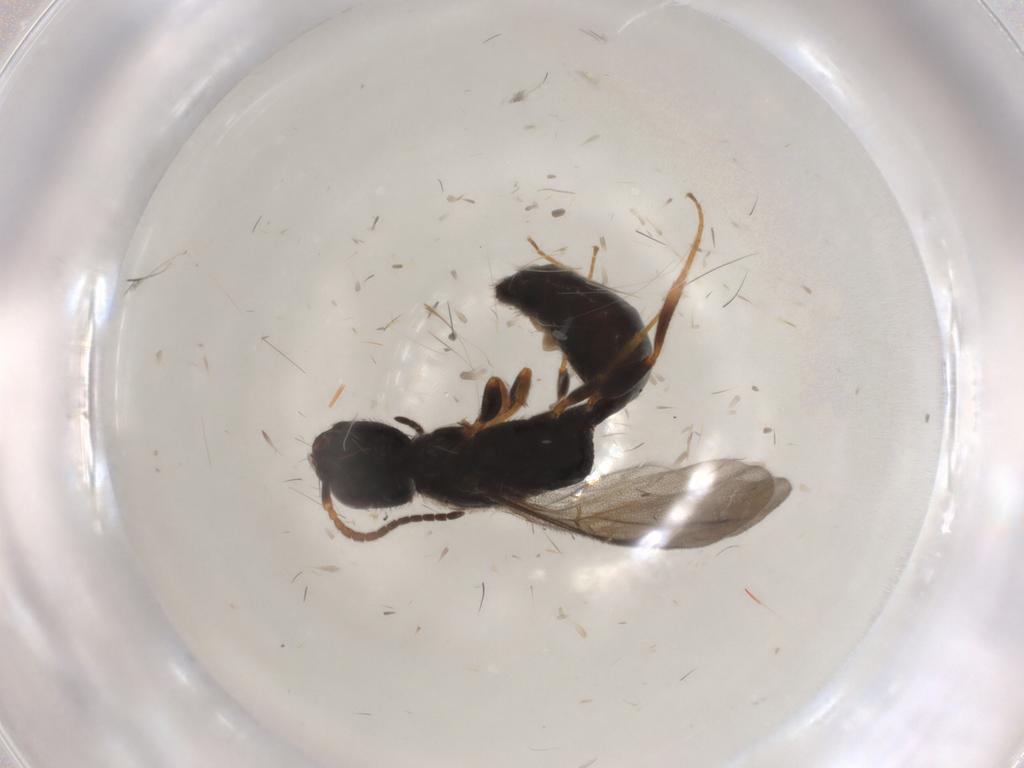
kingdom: Animalia
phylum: Arthropoda
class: Insecta
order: Hymenoptera
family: Bethylidae
